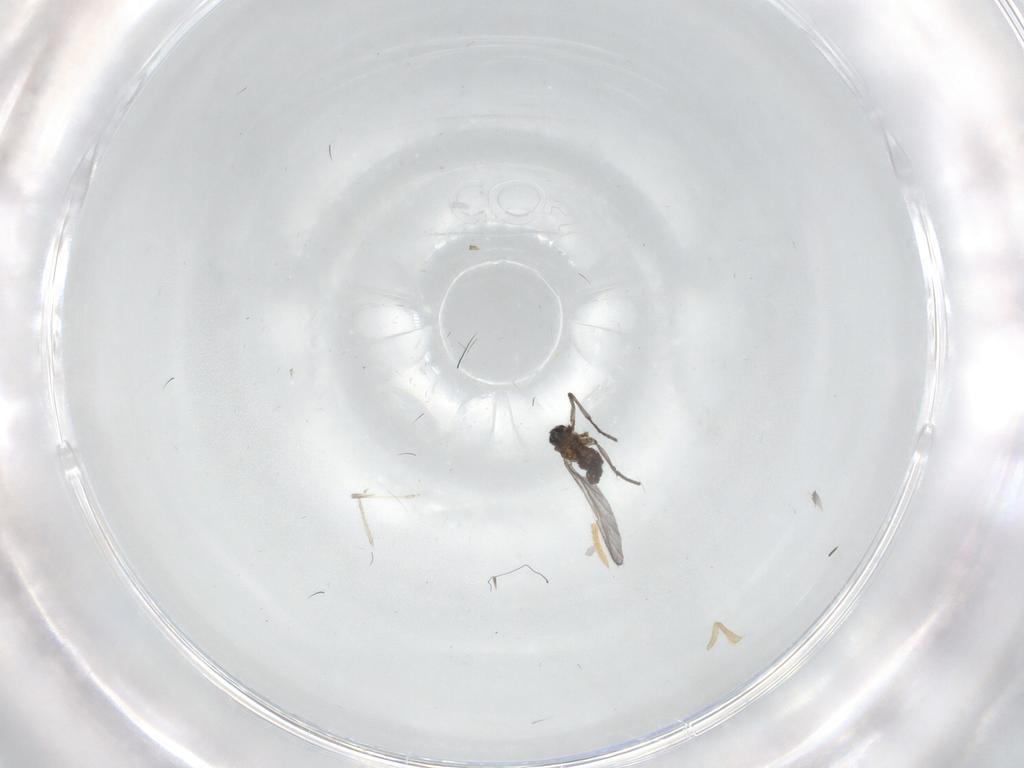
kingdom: Animalia
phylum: Arthropoda
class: Insecta
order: Diptera
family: Sciaridae
